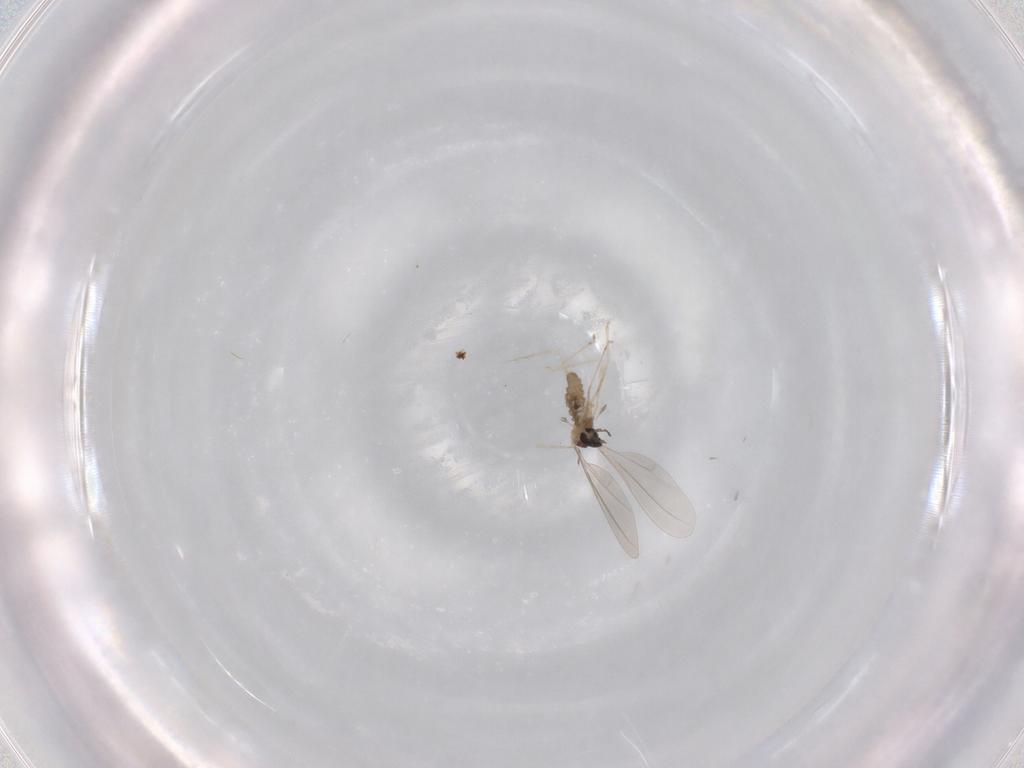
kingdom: Animalia
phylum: Arthropoda
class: Insecta
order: Diptera
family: Cecidomyiidae
